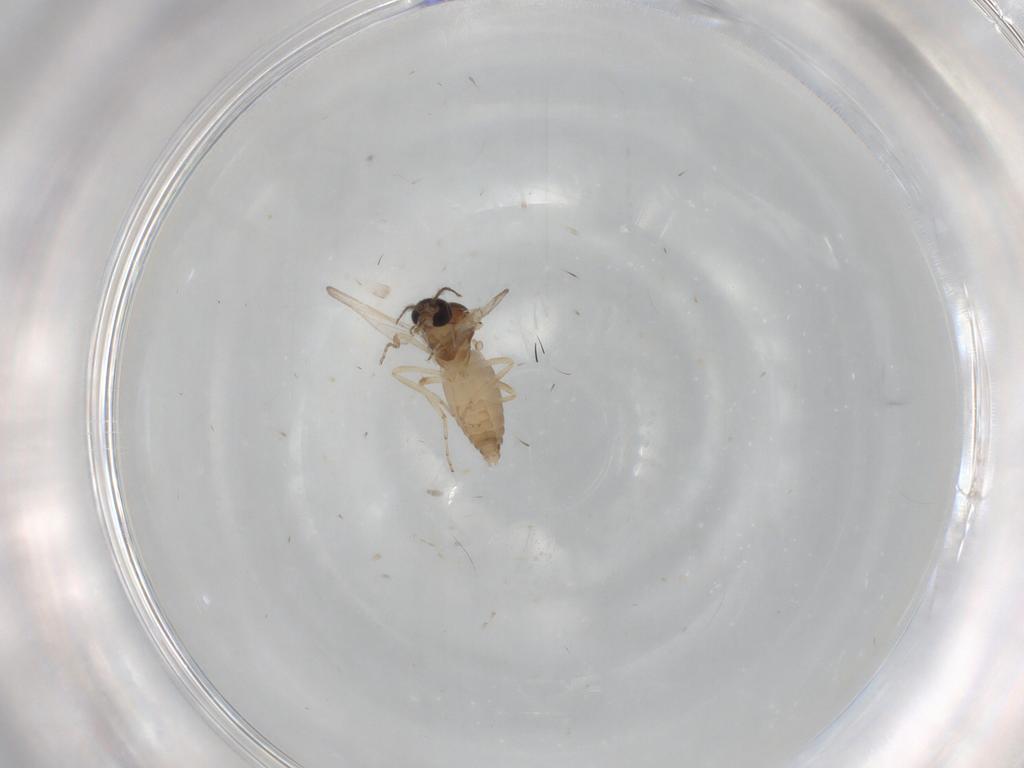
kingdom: Animalia
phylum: Arthropoda
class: Insecta
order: Diptera
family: Ceratopogonidae
